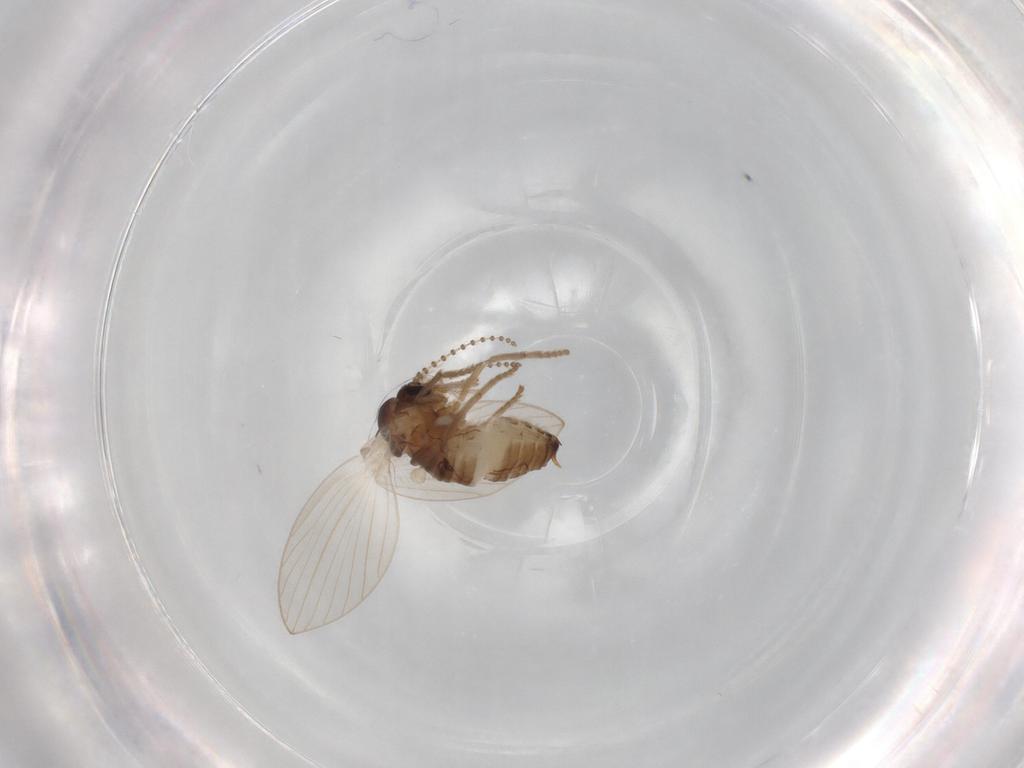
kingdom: Animalia
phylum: Arthropoda
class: Insecta
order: Diptera
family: Psychodidae
